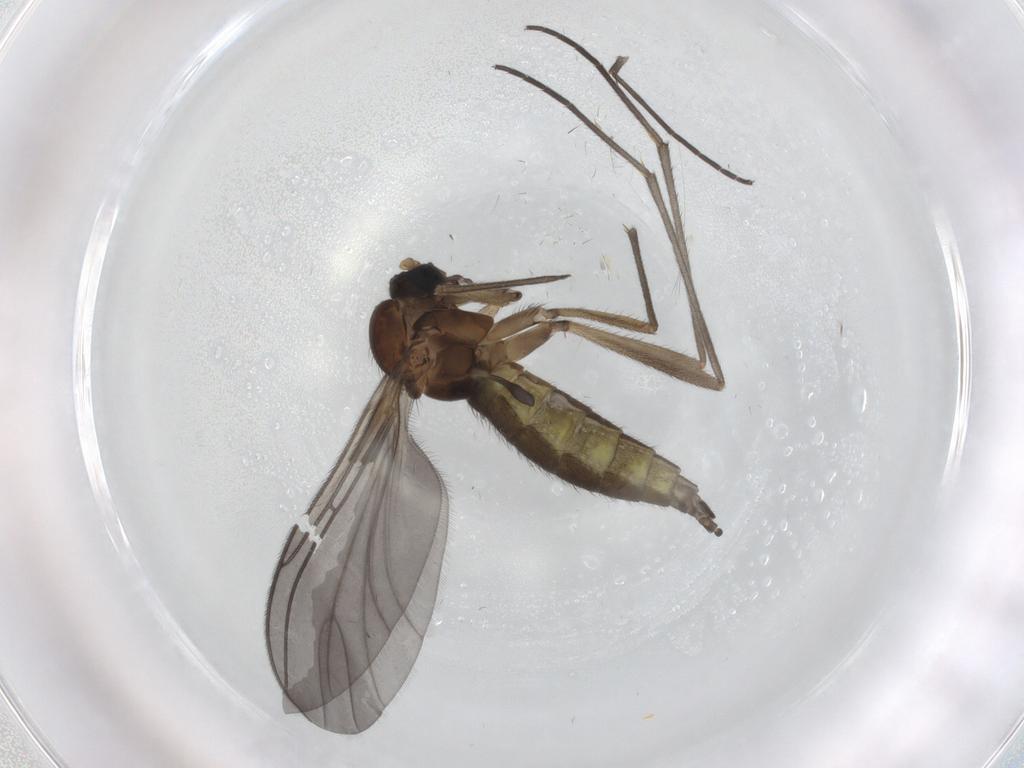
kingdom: Animalia
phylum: Arthropoda
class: Insecta
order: Diptera
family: Sciaridae
